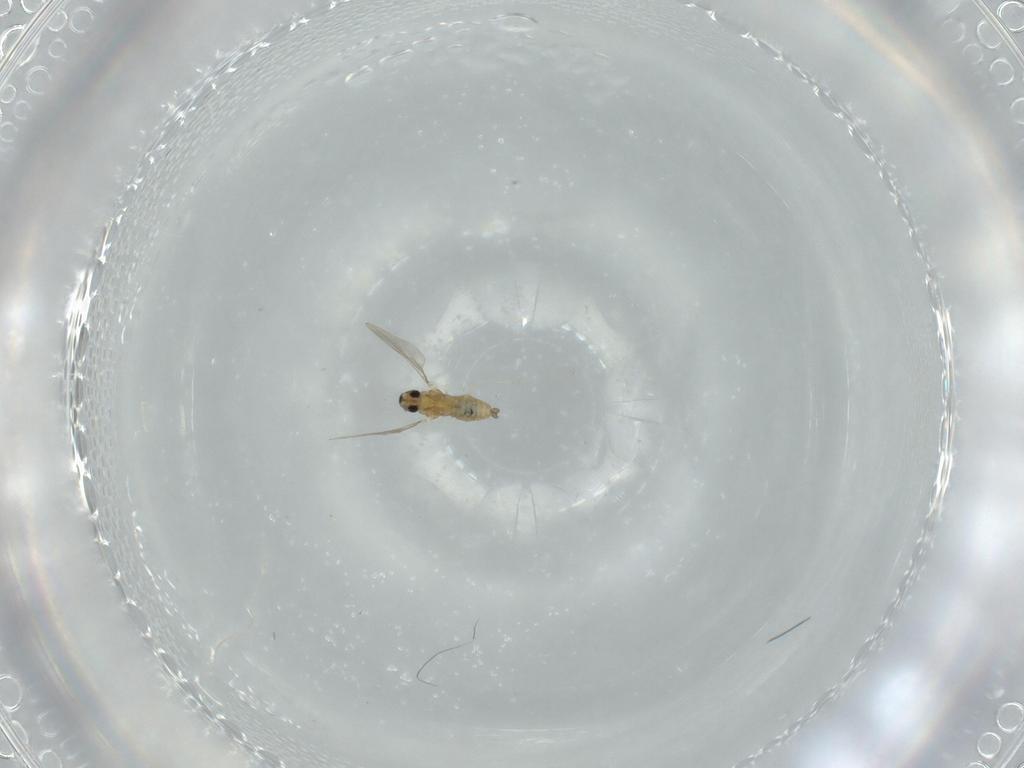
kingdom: Animalia
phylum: Arthropoda
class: Insecta
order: Diptera
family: Cecidomyiidae
